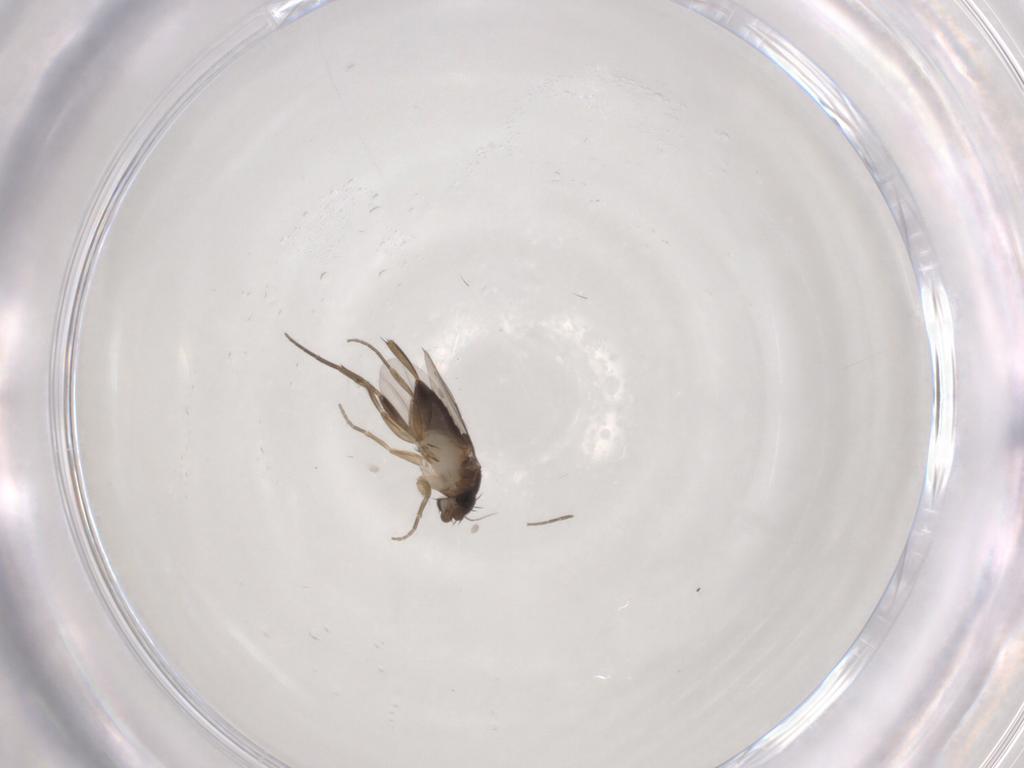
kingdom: Animalia
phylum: Arthropoda
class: Insecta
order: Diptera
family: Phoridae
